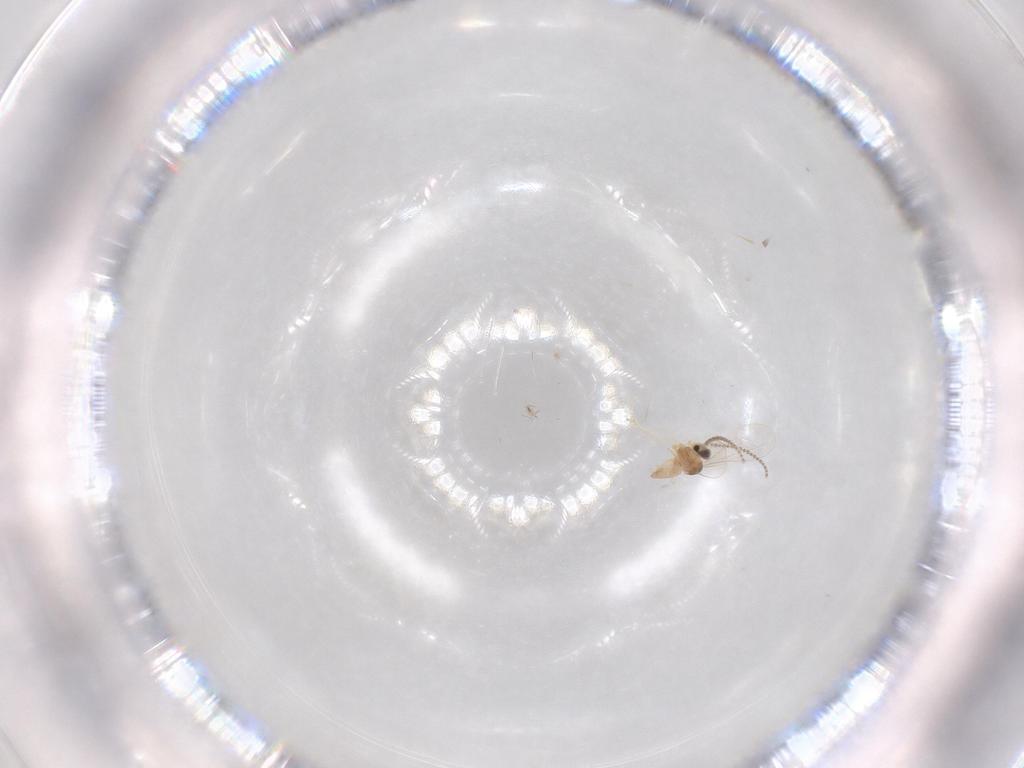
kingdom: Animalia
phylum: Arthropoda
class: Insecta
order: Diptera
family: Cecidomyiidae
